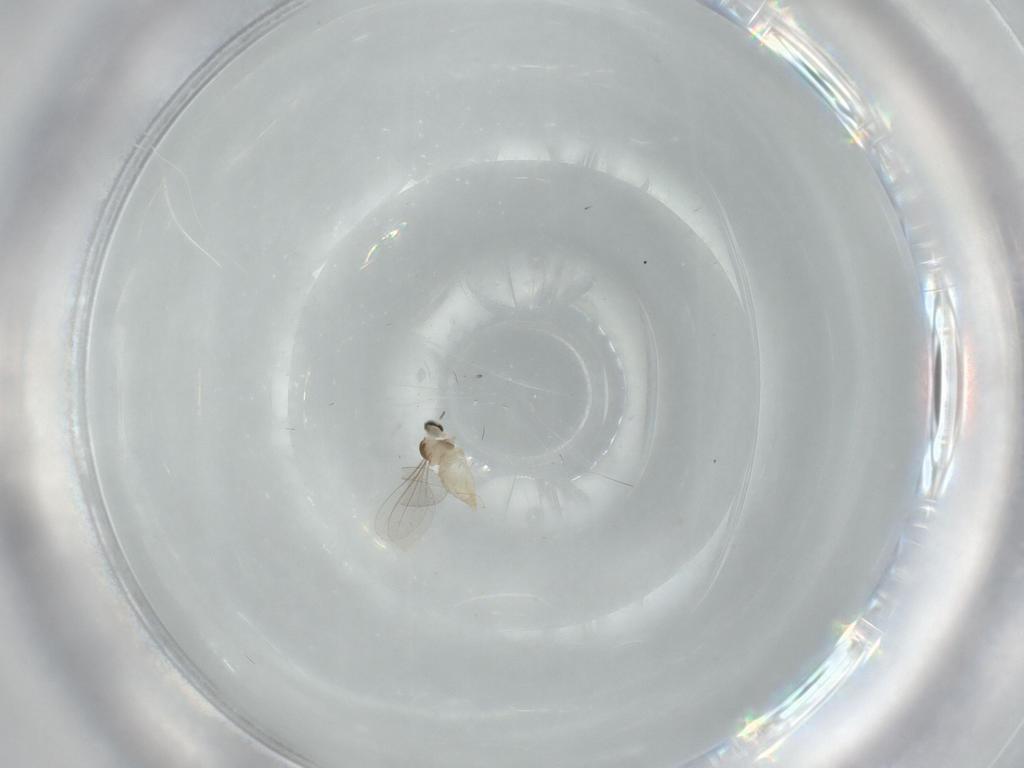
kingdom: Animalia
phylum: Arthropoda
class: Insecta
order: Diptera
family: Cecidomyiidae
